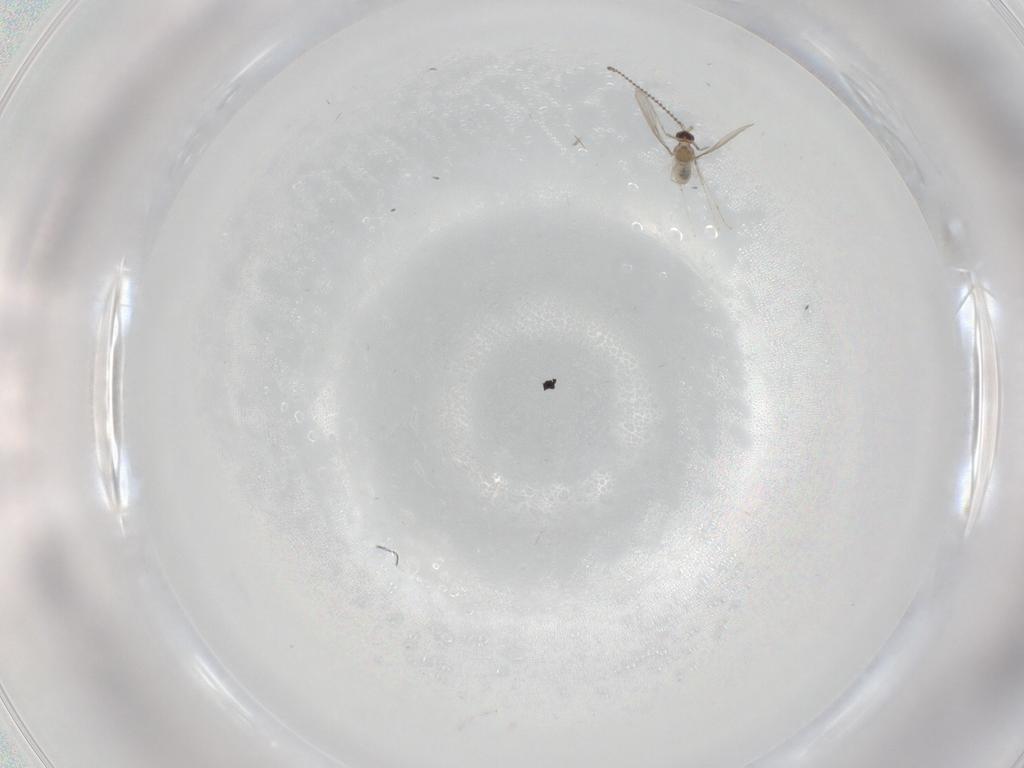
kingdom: Animalia
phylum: Arthropoda
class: Insecta
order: Diptera
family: Cecidomyiidae
